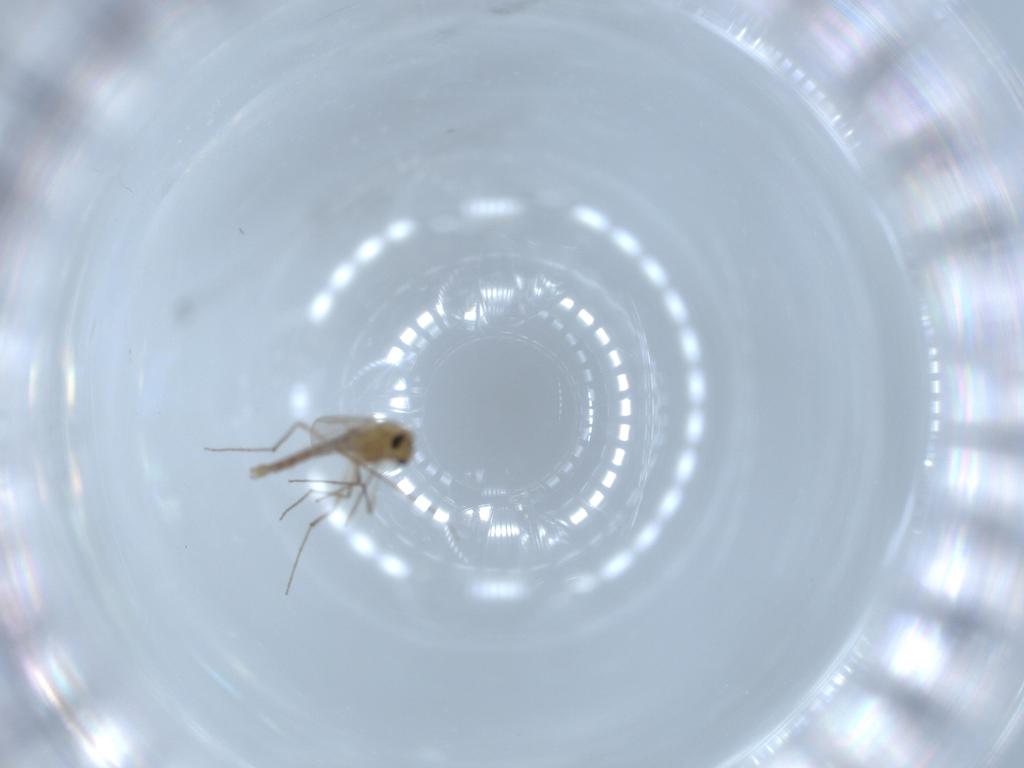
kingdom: Animalia
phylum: Arthropoda
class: Insecta
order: Diptera
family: Chironomidae
